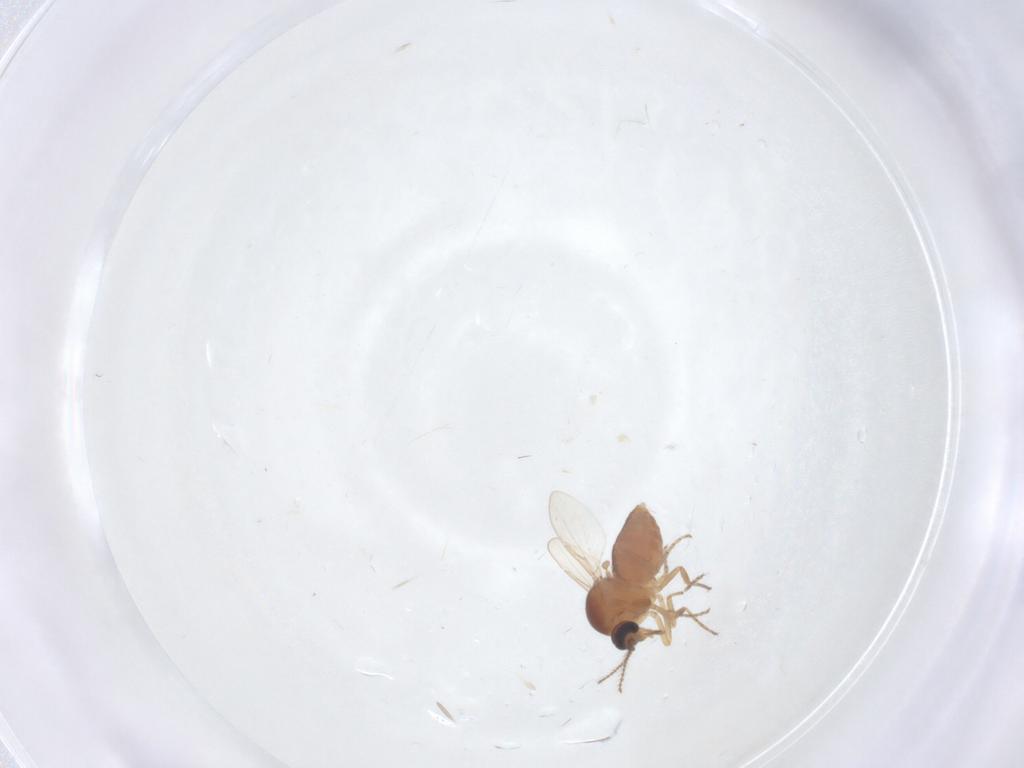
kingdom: Animalia
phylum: Arthropoda
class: Insecta
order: Diptera
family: Ceratopogonidae
